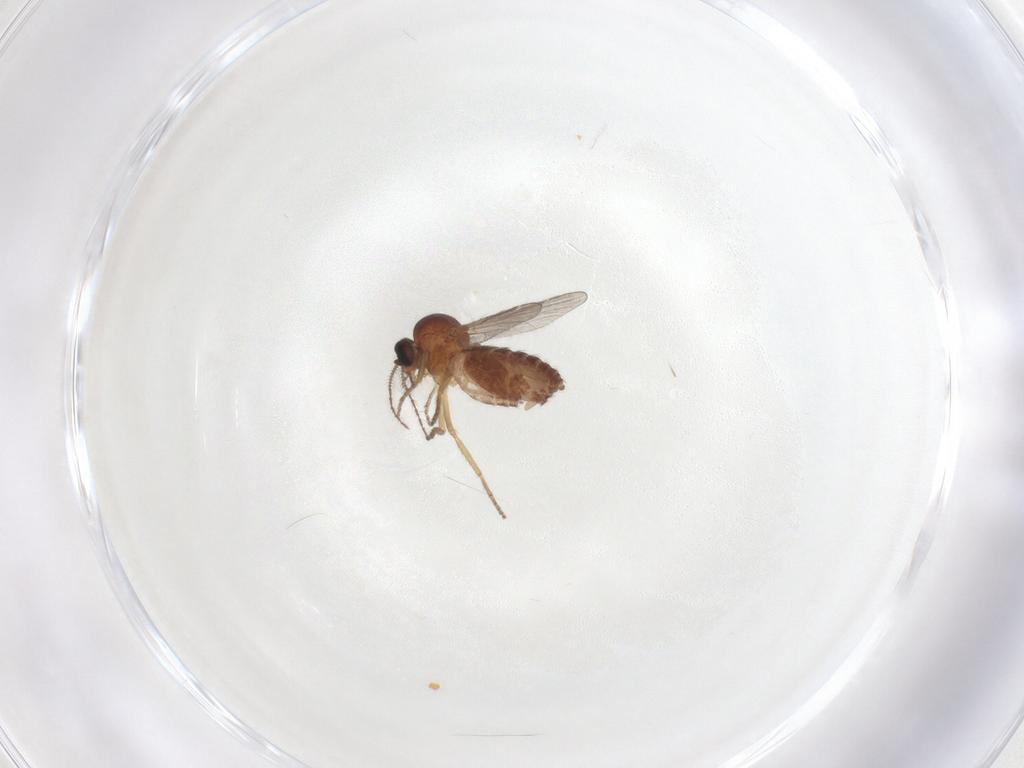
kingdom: Animalia
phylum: Arthropoda
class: Insecta
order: Diptera
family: Ceratopogonidae
